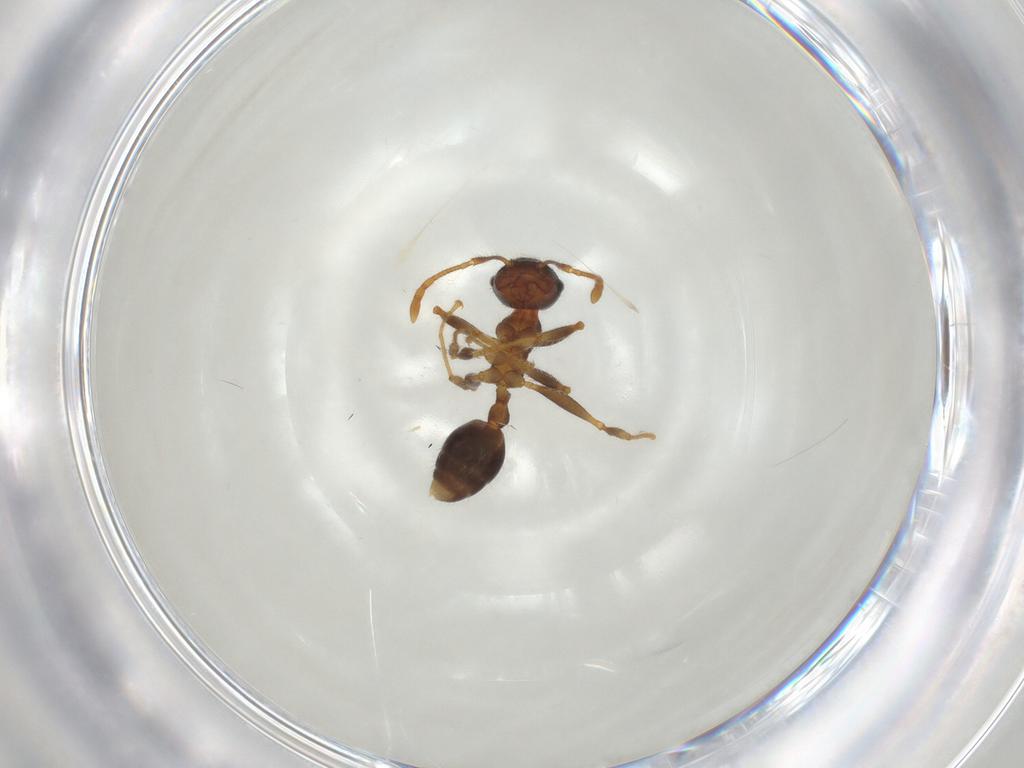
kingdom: Animalia
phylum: Arthropoda
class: Insecta
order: Hymenoptera
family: Formicidae
